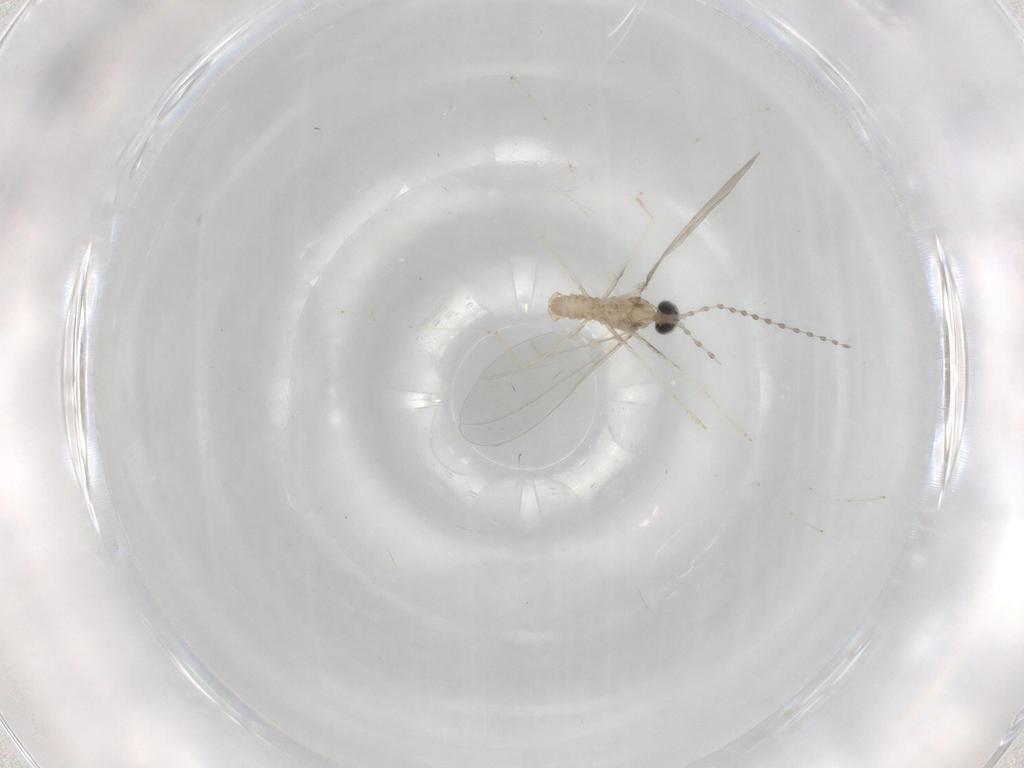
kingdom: Animalia
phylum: Arthropoda
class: Insecta
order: Diptera
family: Cecidomyiidae
